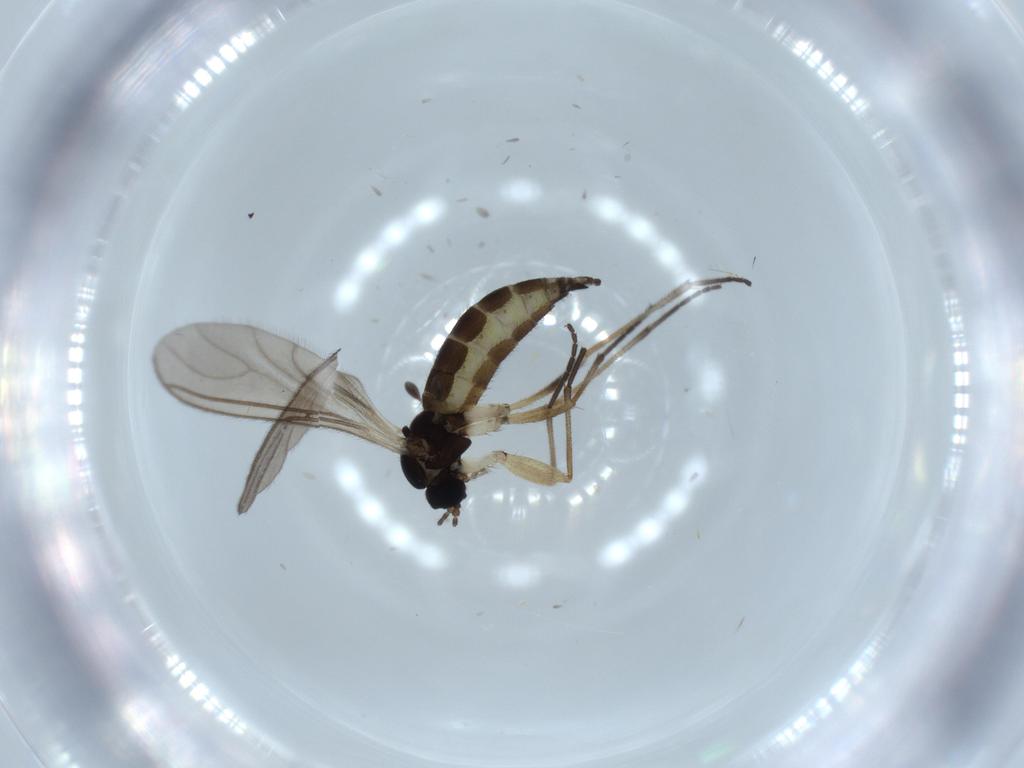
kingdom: Animalia
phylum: Arthropoda
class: Insecta
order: Diptera
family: Sciaridae
